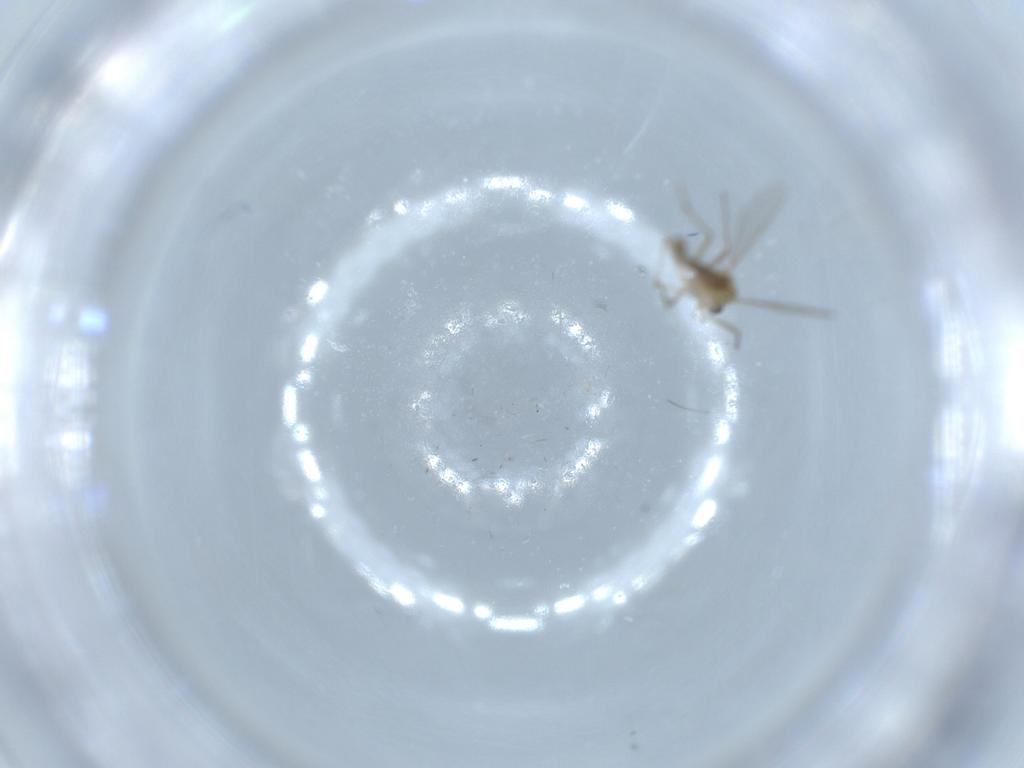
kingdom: Animalia
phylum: Arthropoda
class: Insecta
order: Diptera
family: Chironomidae
